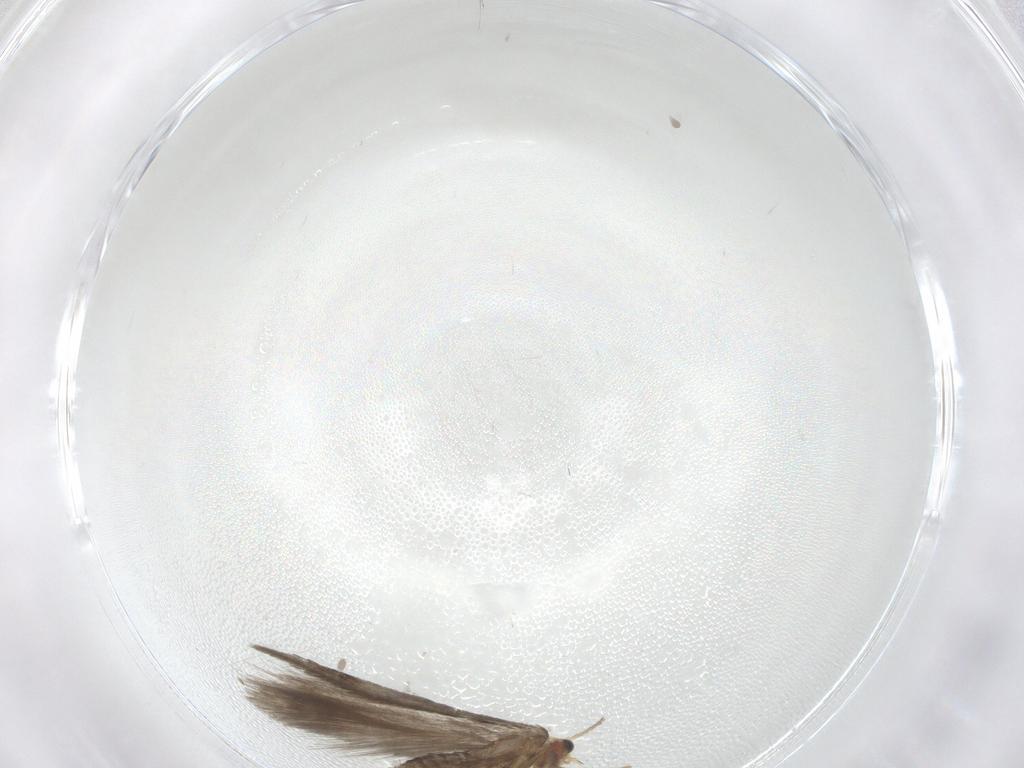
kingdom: Animalia
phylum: Arthropoda
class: Insecta
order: Lepidoptera
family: Nepticulidae
